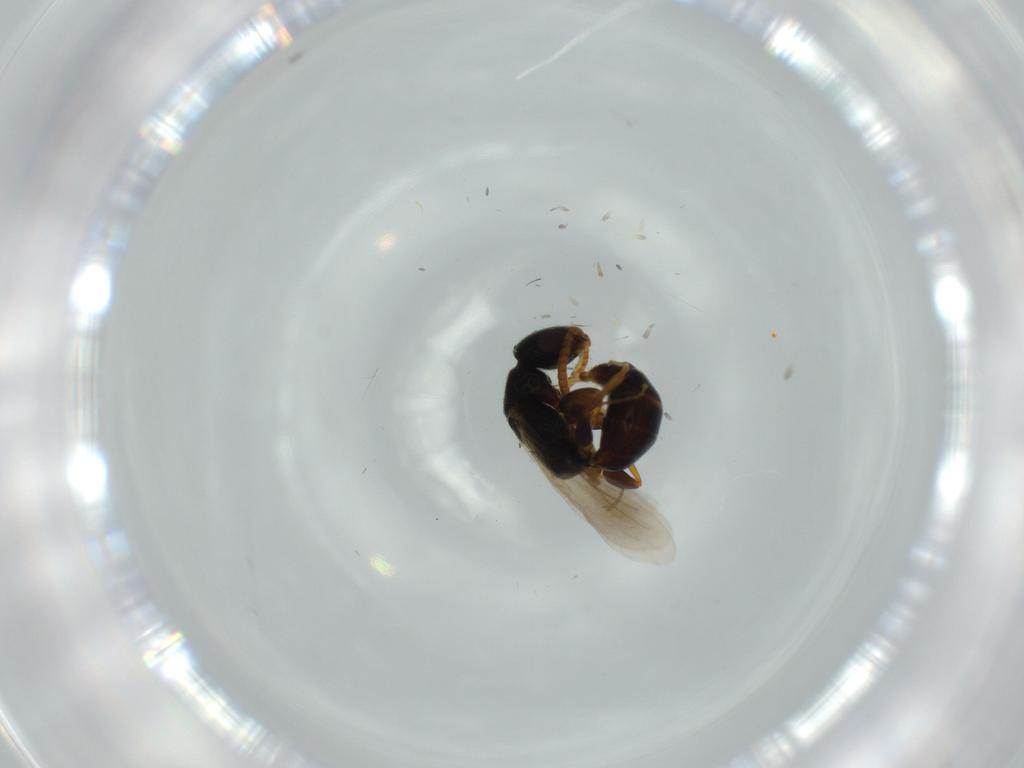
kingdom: Animalia
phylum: Arthropoda
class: Insecta
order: Hymenoptera
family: Bethylidae
